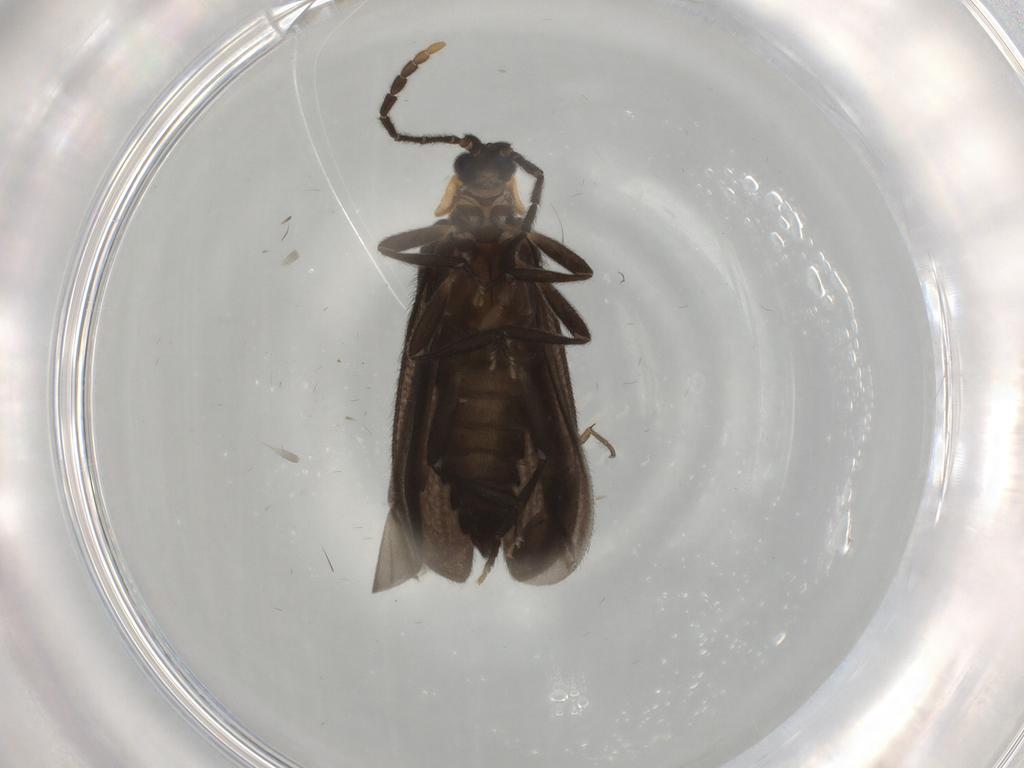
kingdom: Animalia
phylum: Arthropoda
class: Insecta
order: Coleoptera
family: Lycidae
